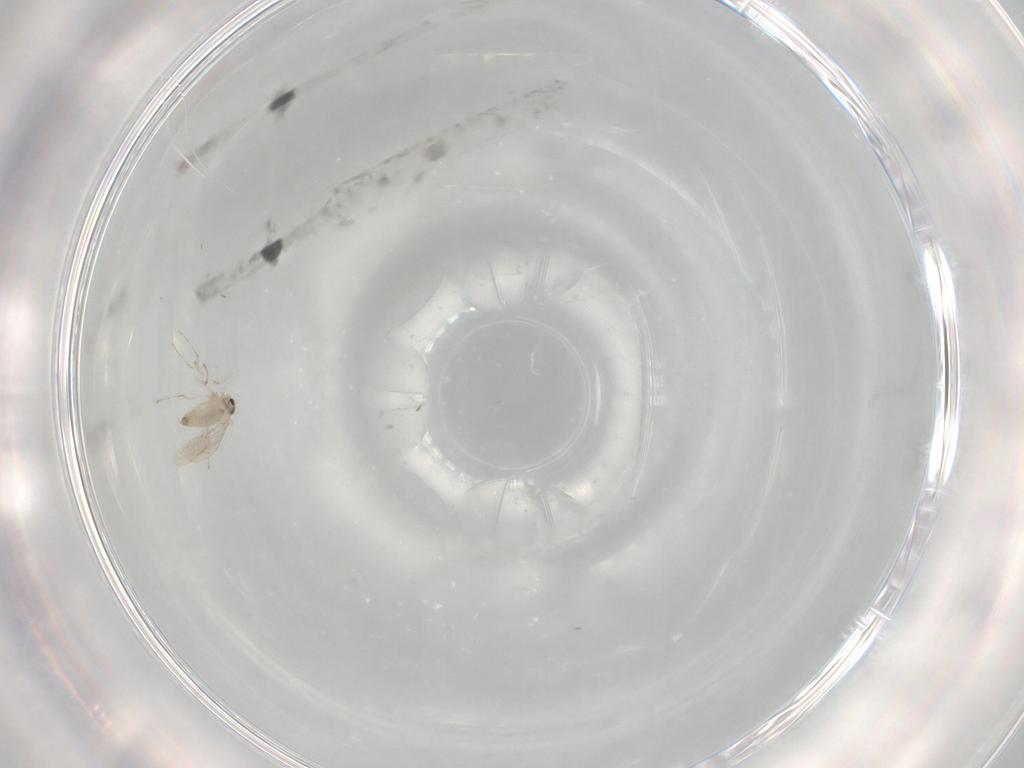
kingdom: Animalia
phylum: Arthropoda
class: Insecta
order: Diptera
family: Cecidomyiidae
